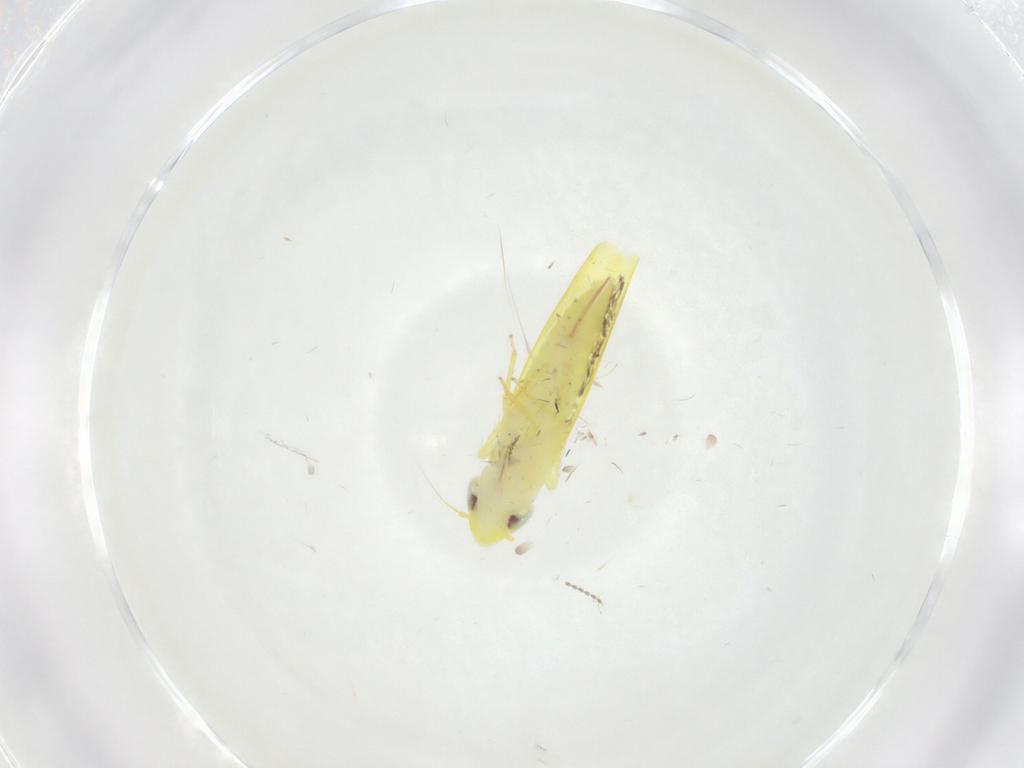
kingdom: Animalia
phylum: Arthropoda
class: Insecta
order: Hemiptera
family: Cicadellidae
